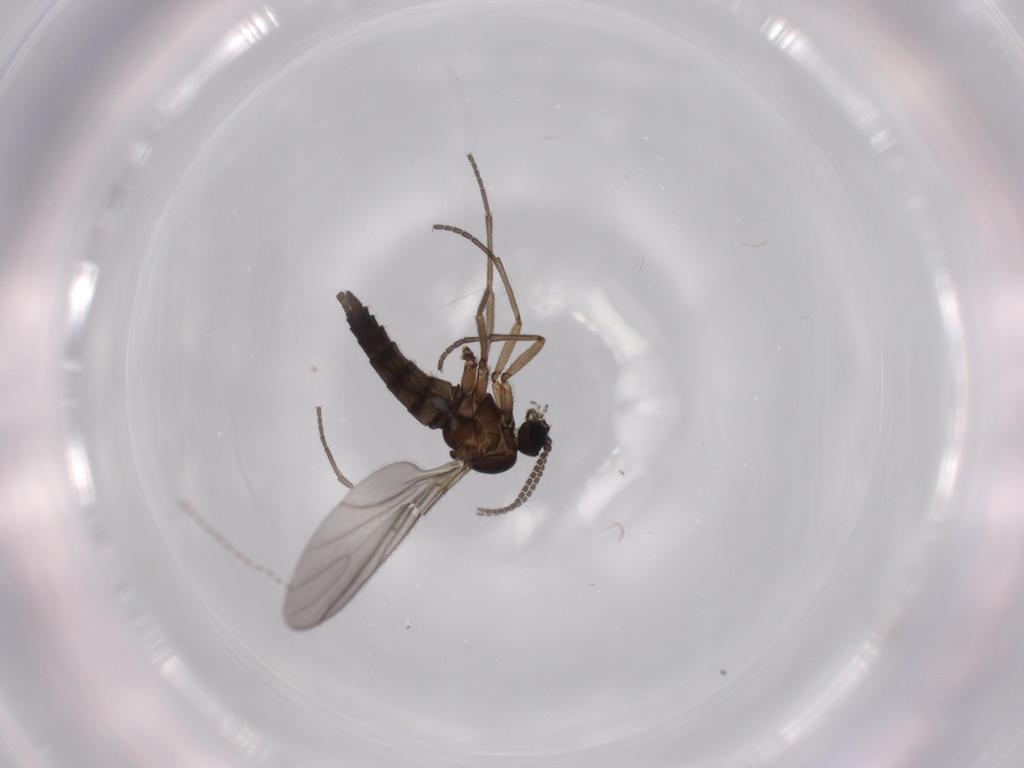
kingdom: Animalia
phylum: Arthropoda
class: Insecta
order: Diptera
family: Sciaridae
